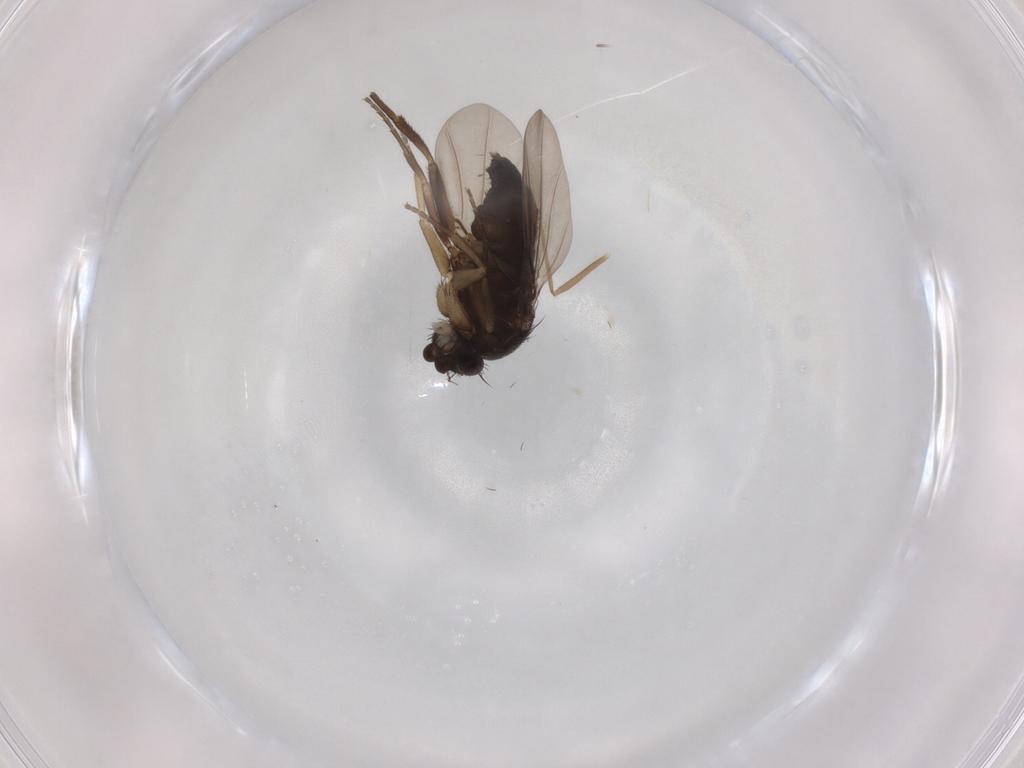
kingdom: Animalia
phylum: Arthropoda
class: Insecta
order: Diptera
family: Phoridae
